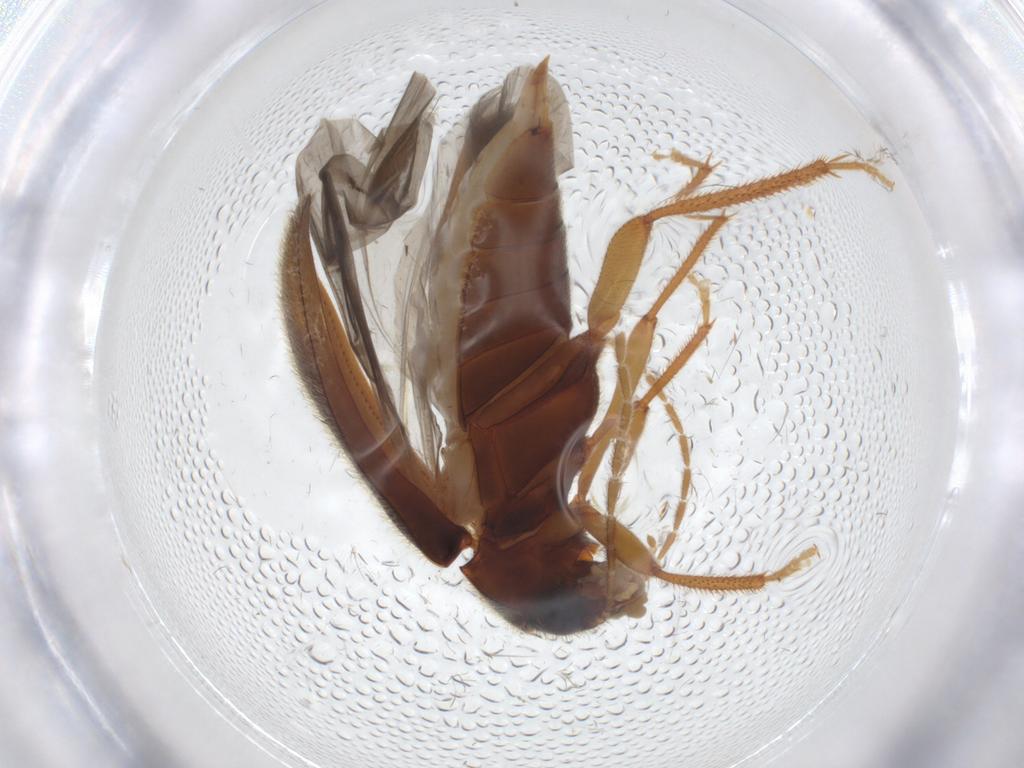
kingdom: Animalia
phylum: Arthropoda
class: Insecta
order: Coleoptera
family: Ptilodactylidae
